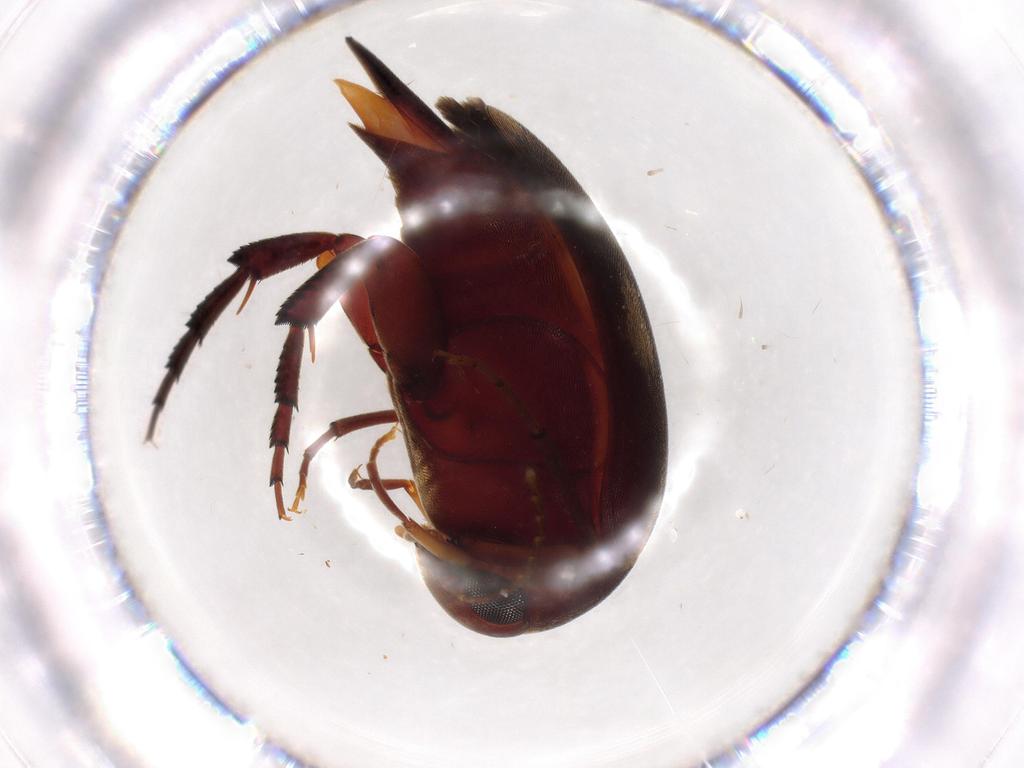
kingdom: Animalia
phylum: Arthropoda
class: Insecta
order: Coleoptera
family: Chrysomelidae
